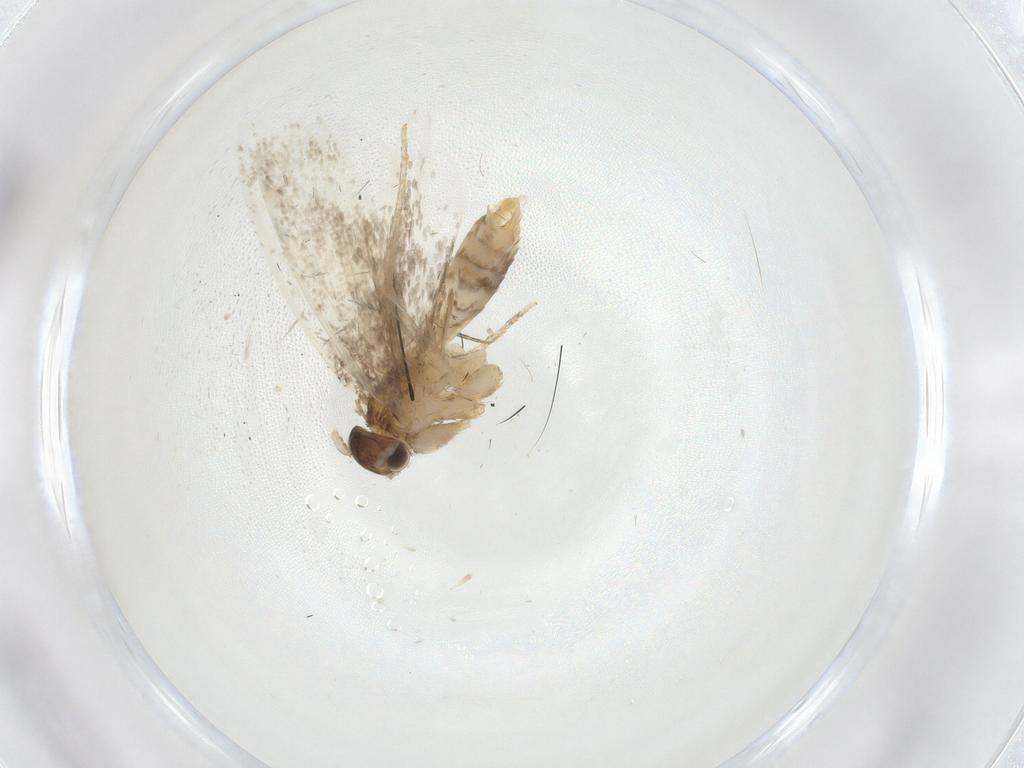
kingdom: Animalia
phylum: Arthropoda
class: Insecta
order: Lepidoptera
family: Dryadaulidae
